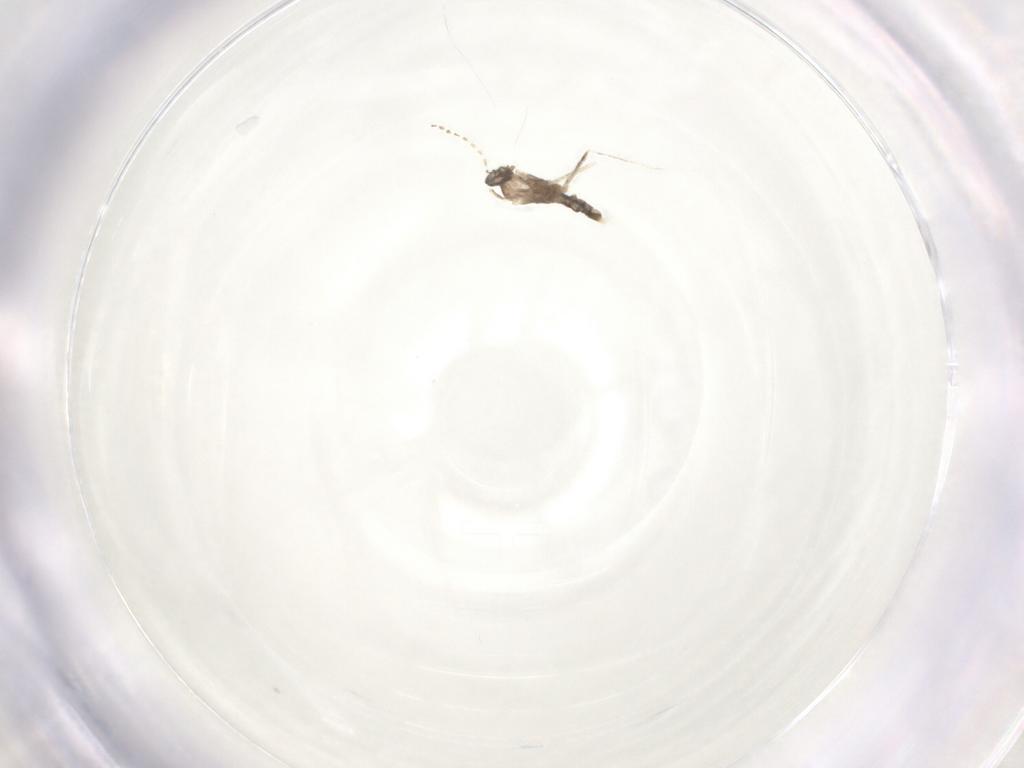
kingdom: Animalia
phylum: Arthropoda
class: Insecta
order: Diptera
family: Cecidomyiidae
